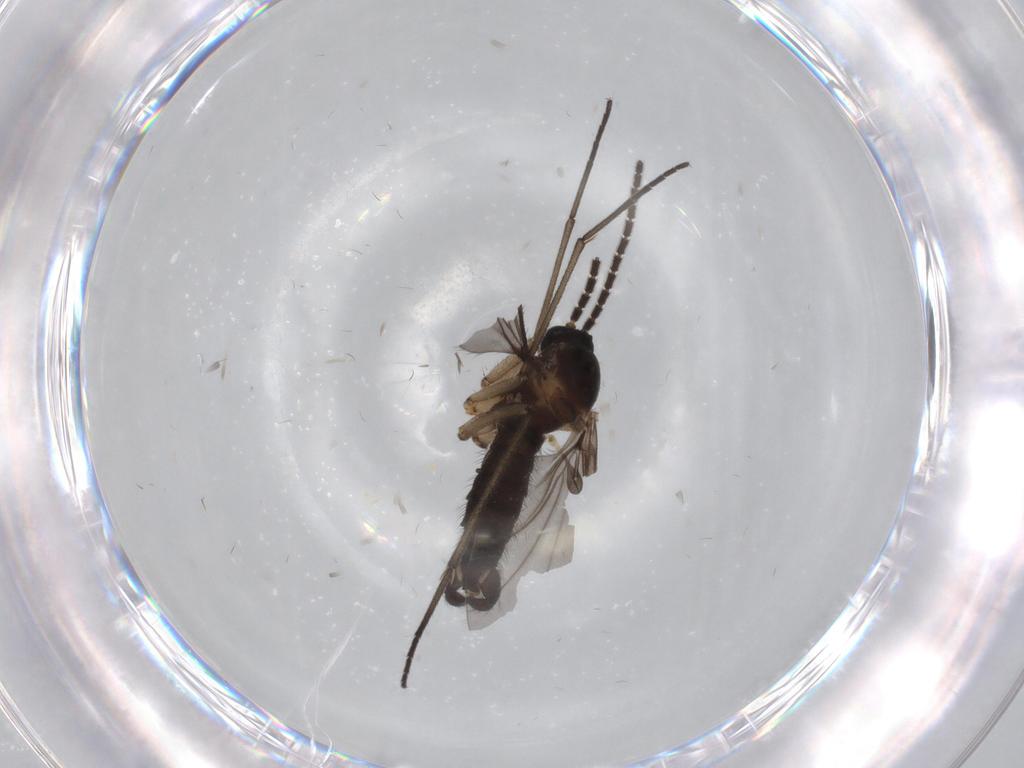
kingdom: Animalia
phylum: Arthropoda
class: Insecta
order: Diptera
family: Sciaridae
